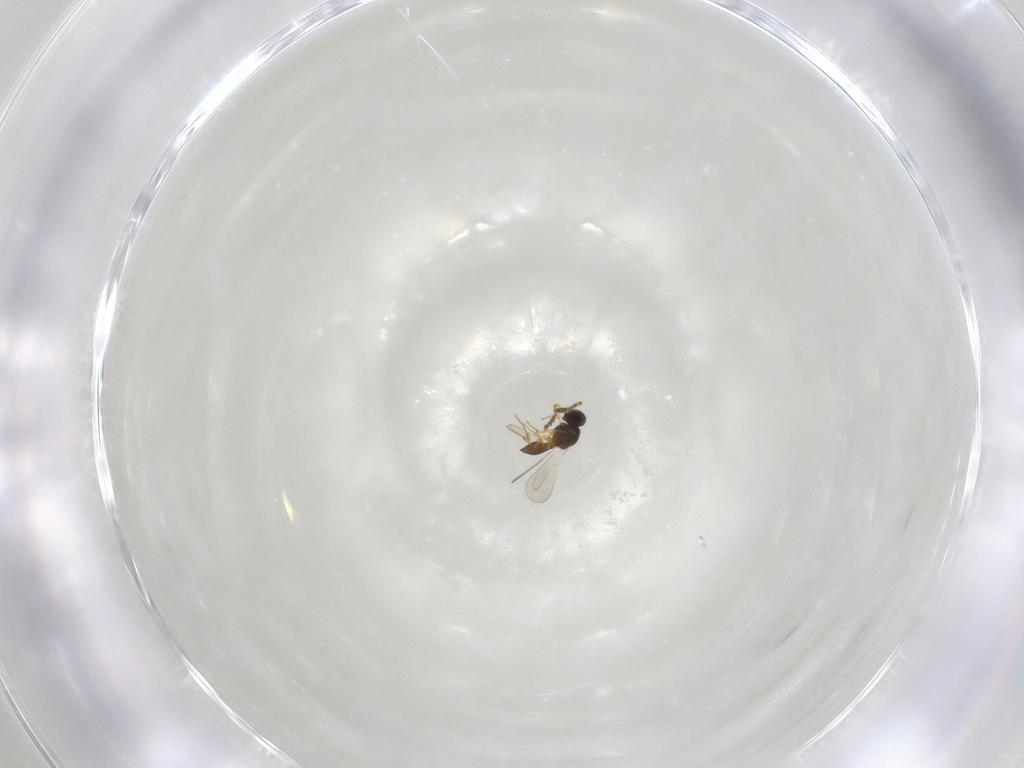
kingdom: Animalia
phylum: Arthropoda
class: Insecta
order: Hymenoptera
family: Platygastridae
